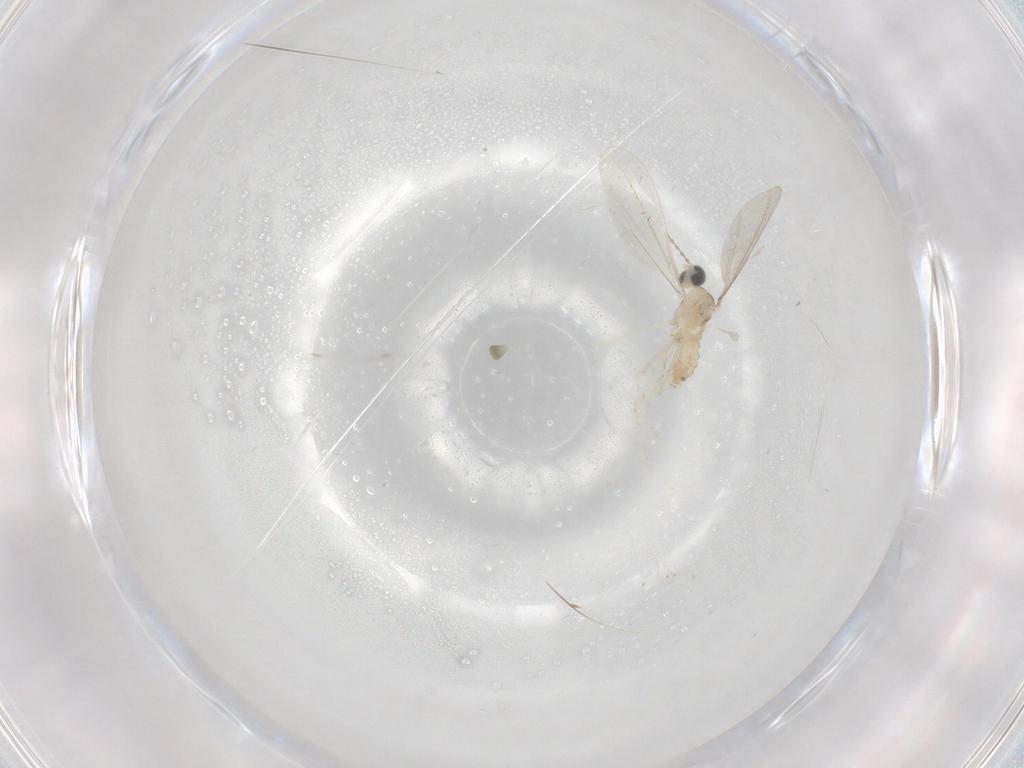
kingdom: Animalia
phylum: Arthropoda
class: Insecta
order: Diptera
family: Cecidomyiidae
